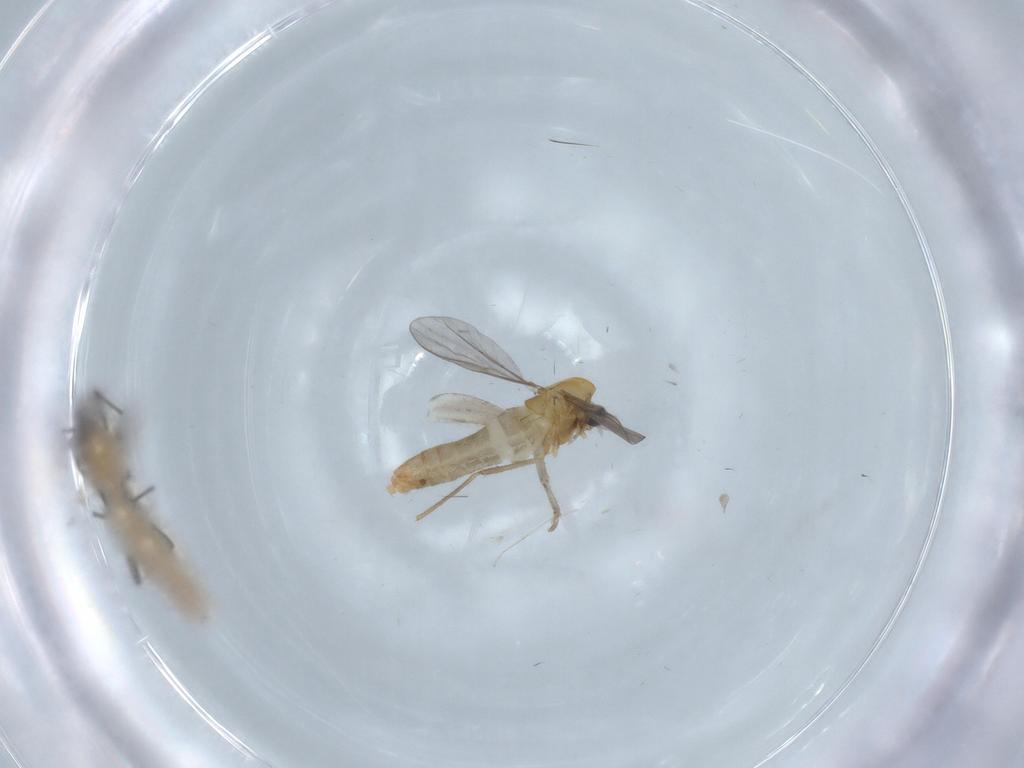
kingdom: Animalia
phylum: Arthropoda
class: Insecta
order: Diptera
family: Chironomidae
